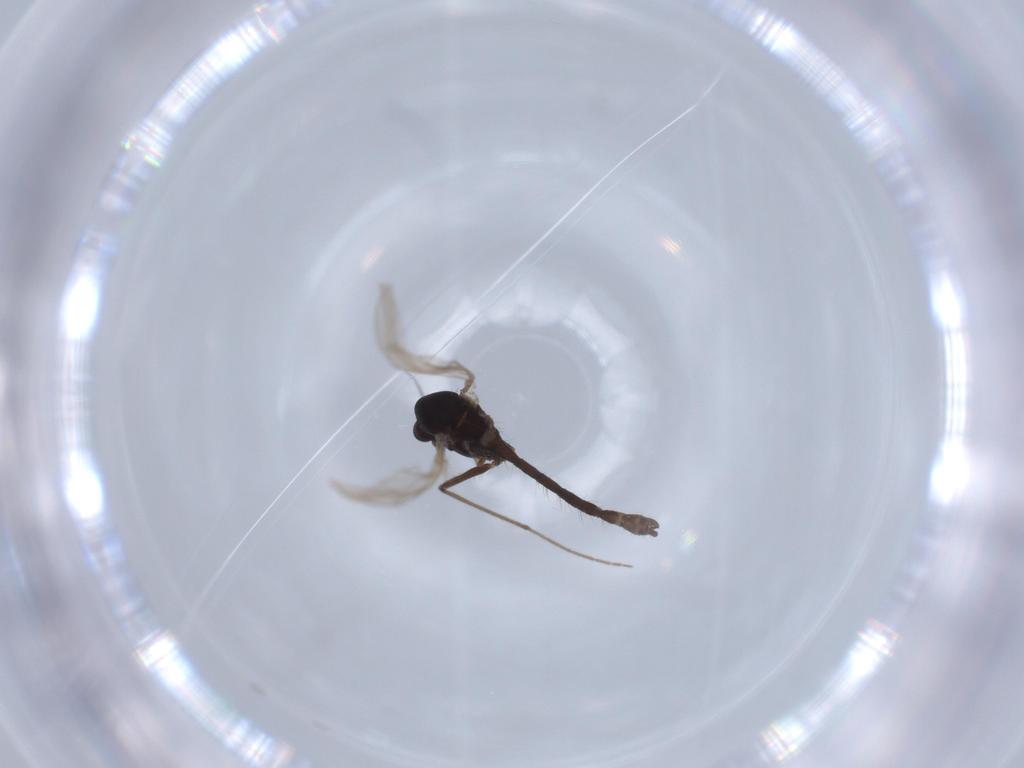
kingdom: Animalia
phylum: Arthropoda
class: Insecta
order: Diptera
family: Chironomidae
